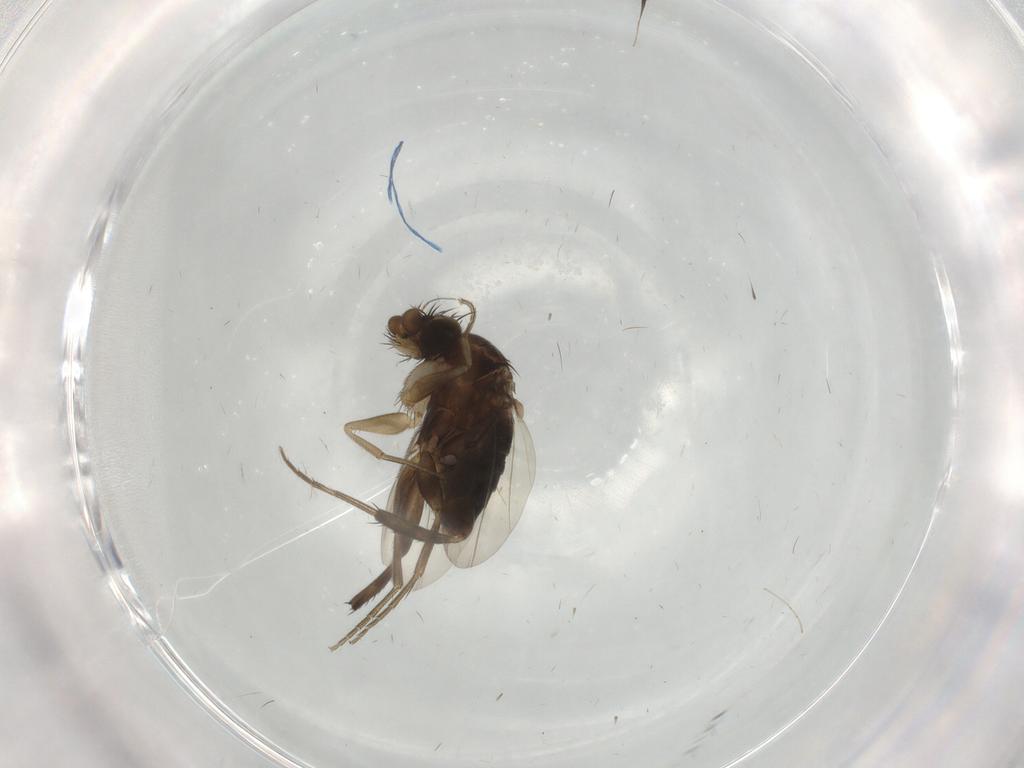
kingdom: Animalia
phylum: Arthropoda
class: Insecta
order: Diptera
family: Phoridae
